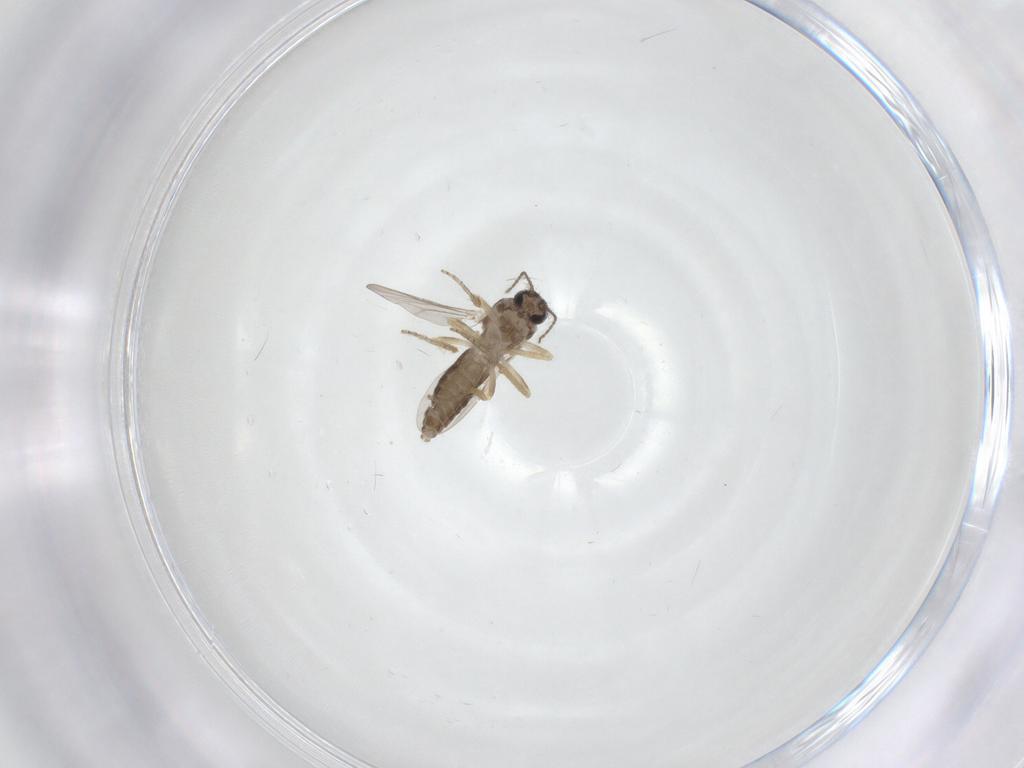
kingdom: Animalia
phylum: Arthropoda
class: Insecta
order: Diptera
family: Ceratopogonidae
